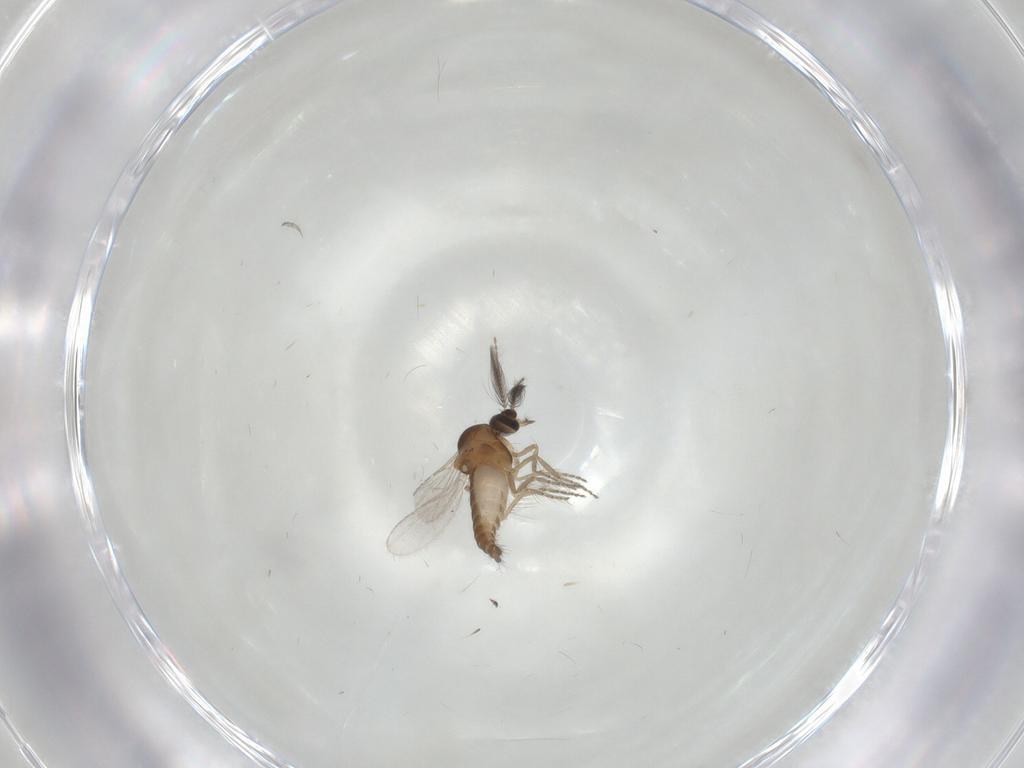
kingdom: Animalia
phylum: Arthropoda
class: Insecta
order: Diptera
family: Ceratopogonidae
